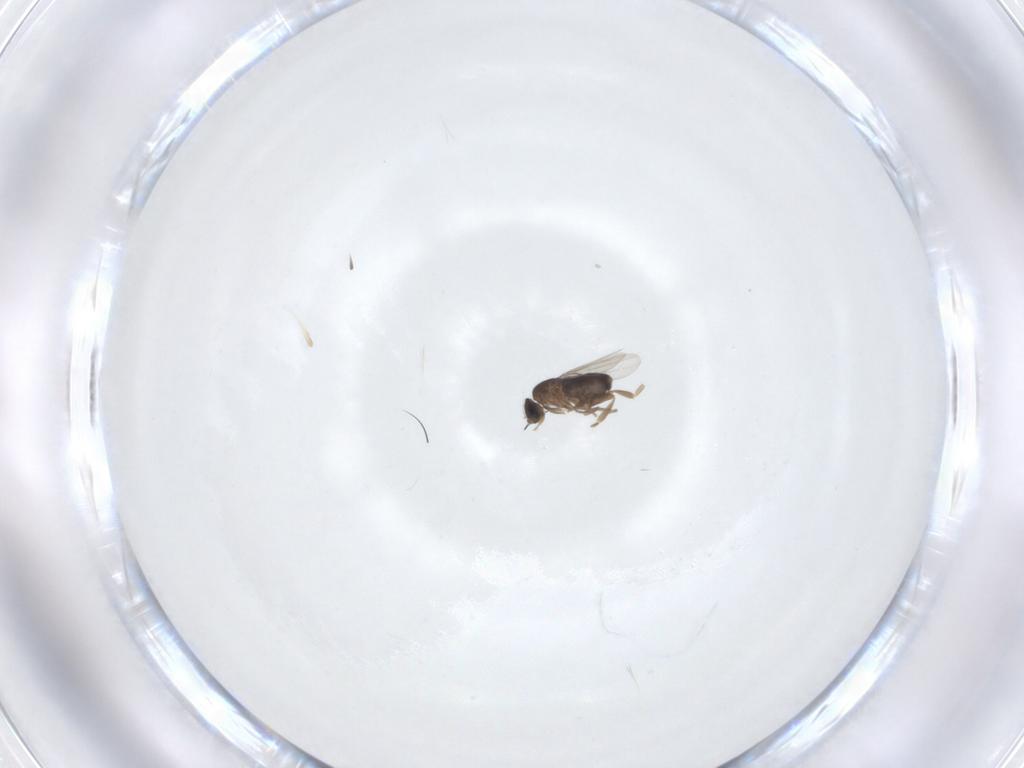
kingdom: Animalia
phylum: Arthropoda
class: Insecta
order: Diptera
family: Phoridae
